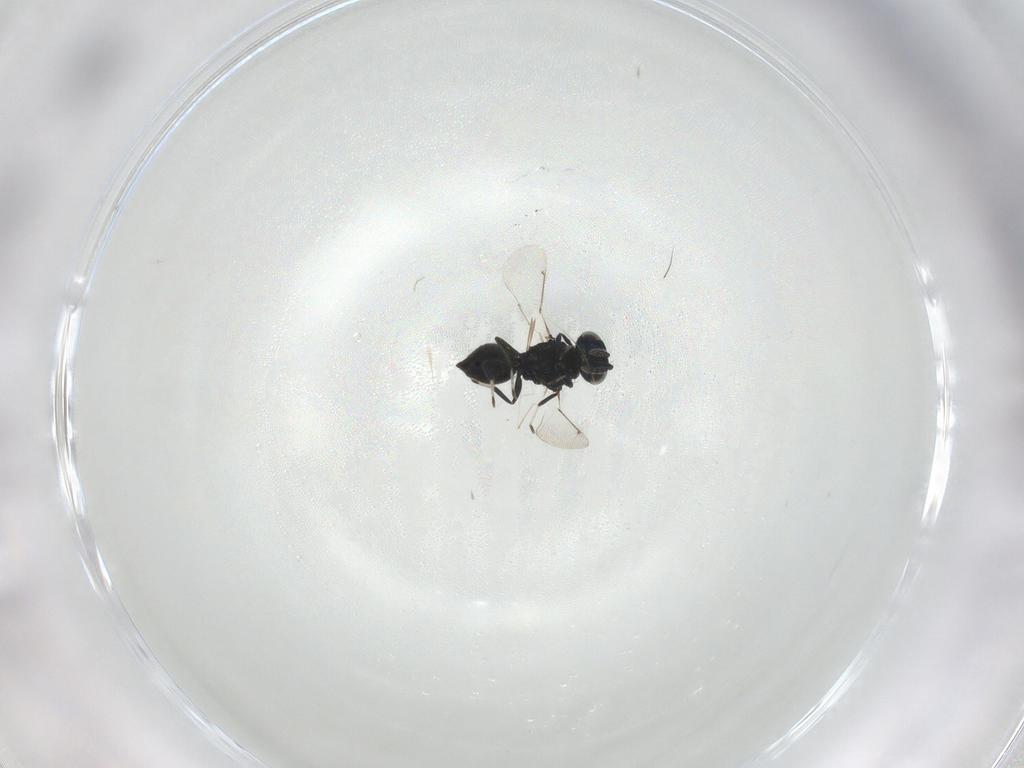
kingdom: Animalia
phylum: Arthropoda
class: Insecta
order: Hymenoptera
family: Eulophidae
